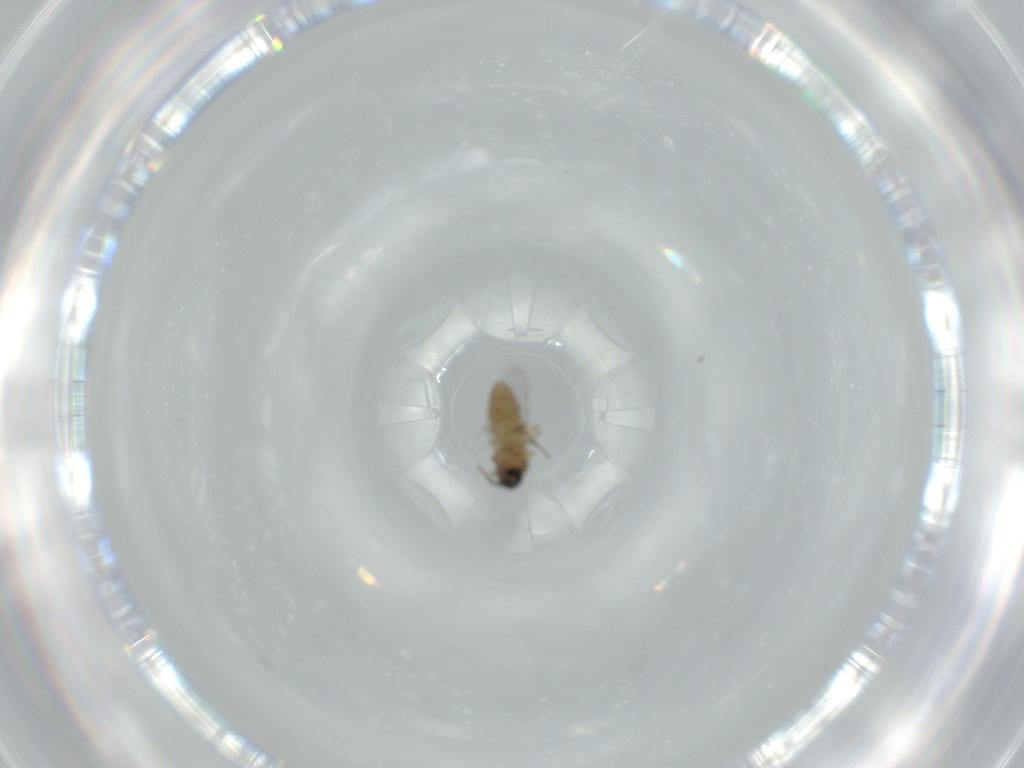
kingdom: Animalia
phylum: Arthropoda
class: Insecta
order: Diptera
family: Ceratopogonidae
